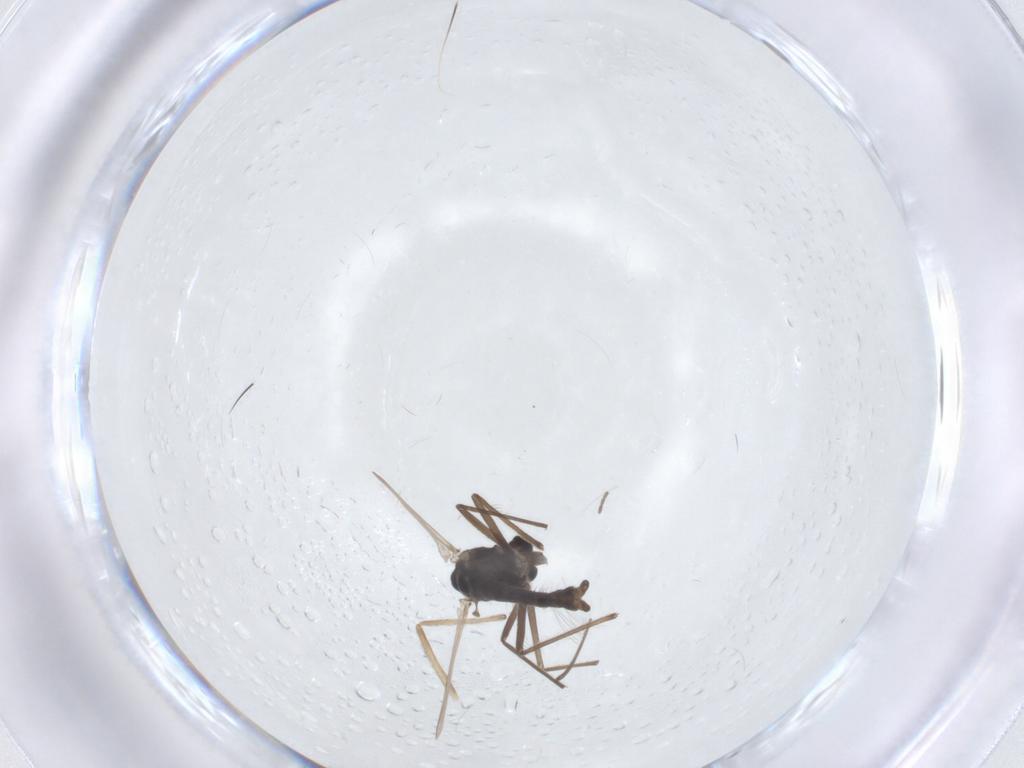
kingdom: Animalia
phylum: Arthropoda
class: Insecta
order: Diptera
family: Chironomidae
